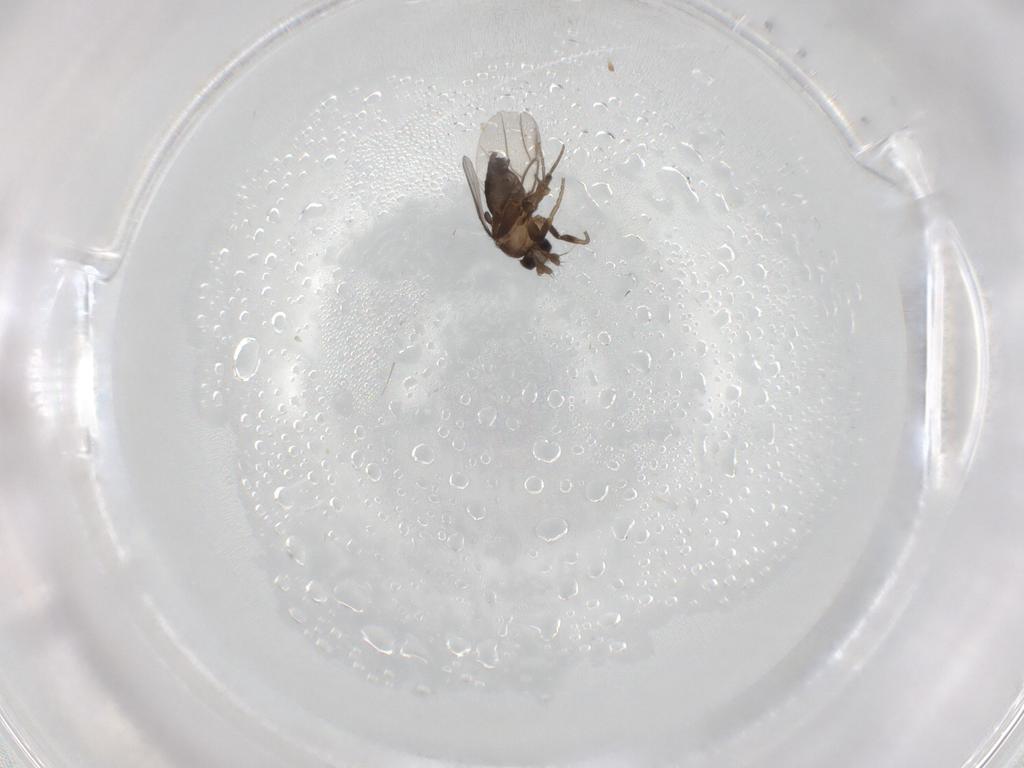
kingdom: Animalia
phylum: Arthropoda
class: Insecta
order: Diptera
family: Phoridae
